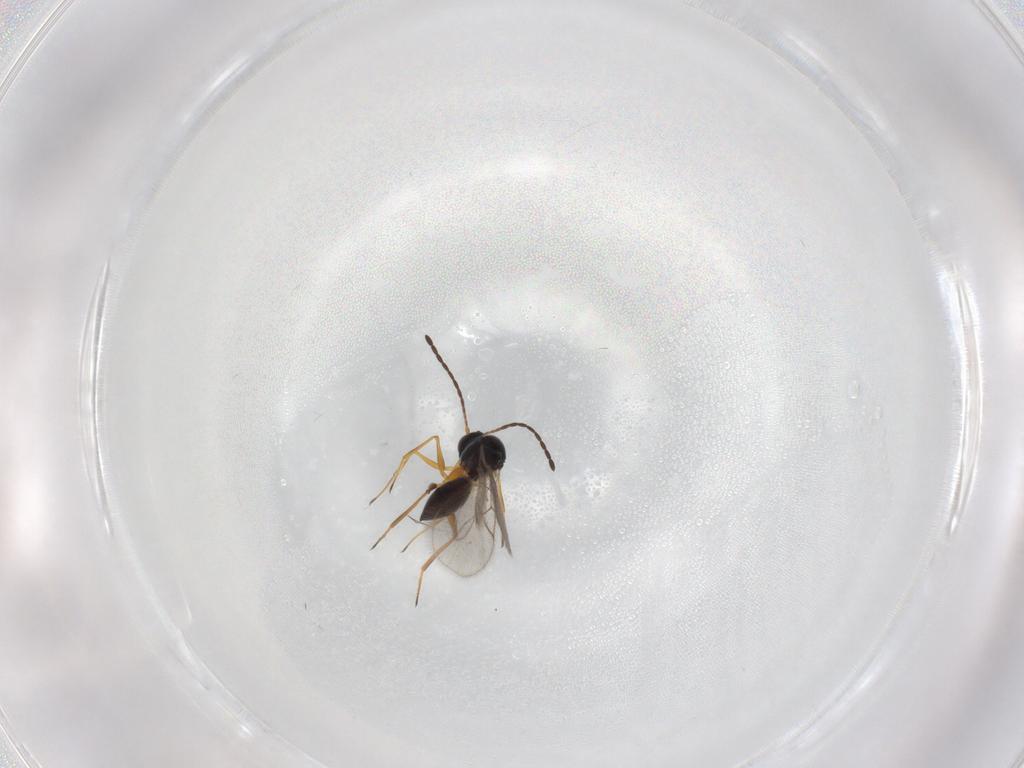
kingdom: Animalia
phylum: Arthropoda
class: Insecta
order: Hymenoptera
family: Figitidae
